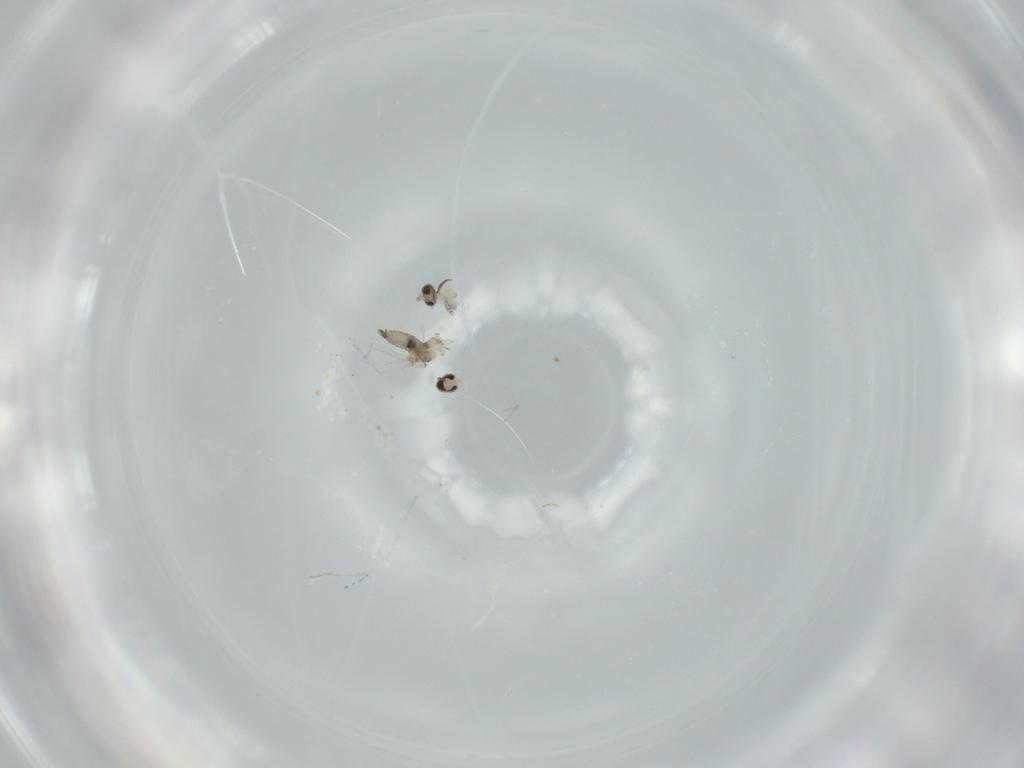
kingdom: Animalia
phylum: Arthropoda
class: Insecta
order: Diptera
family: Cecidomyiidae
